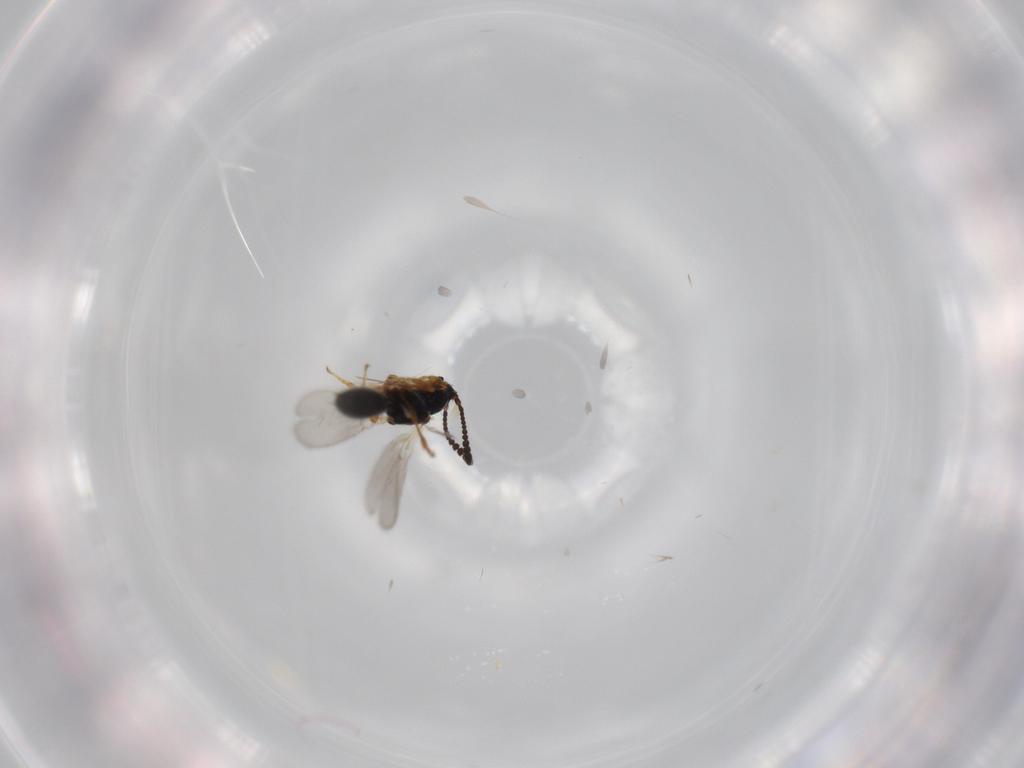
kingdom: Animalia
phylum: Arthropoda
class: Insecta
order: Hymenoptera
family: Diapriidae
